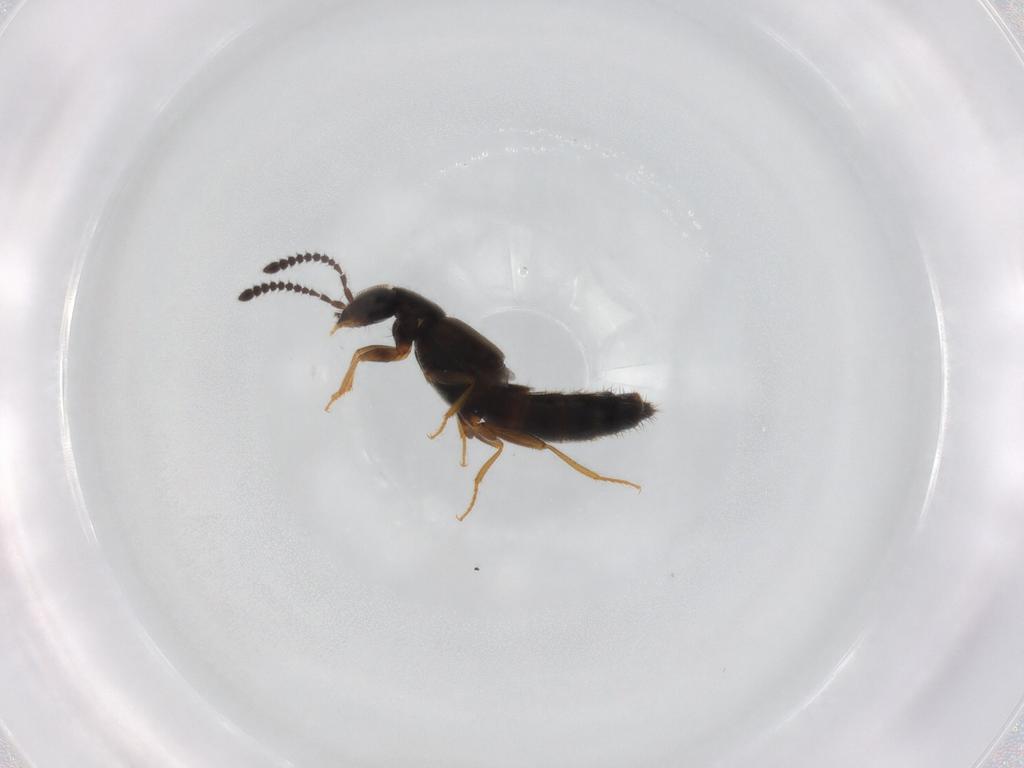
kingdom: Animalia
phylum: Arthropoda
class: Insecta
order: Coleoptera
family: Staphylinidae
